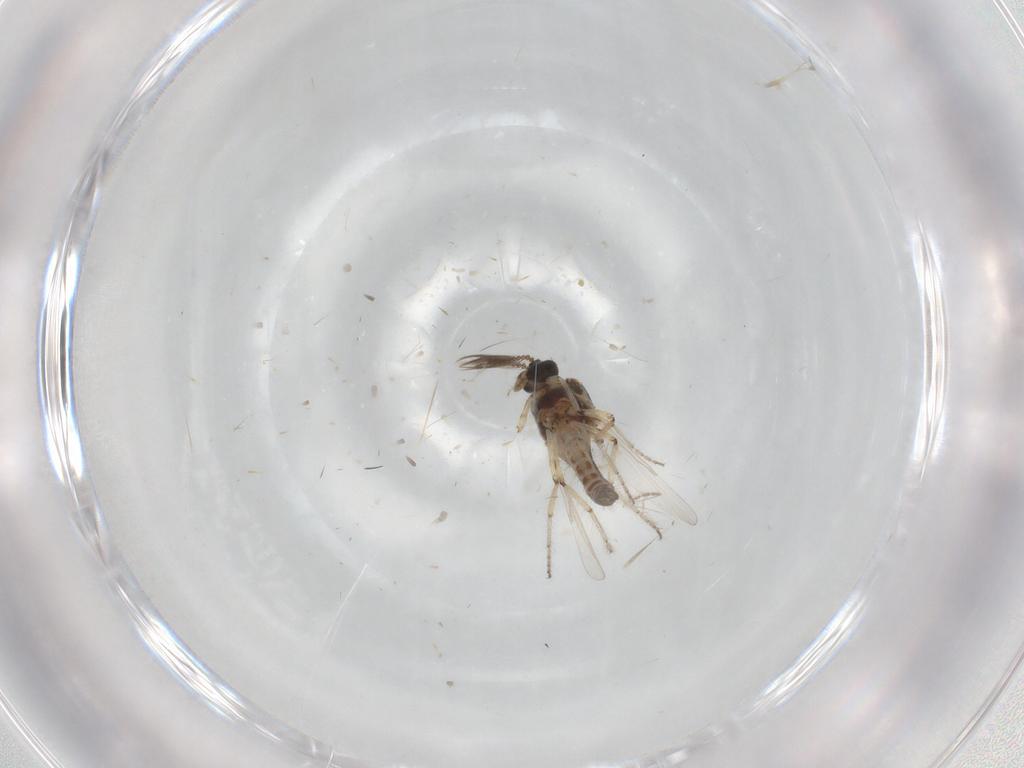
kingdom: Animalia
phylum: Arthropoda
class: Insecta
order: Diptera
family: Ceratopogonidae
